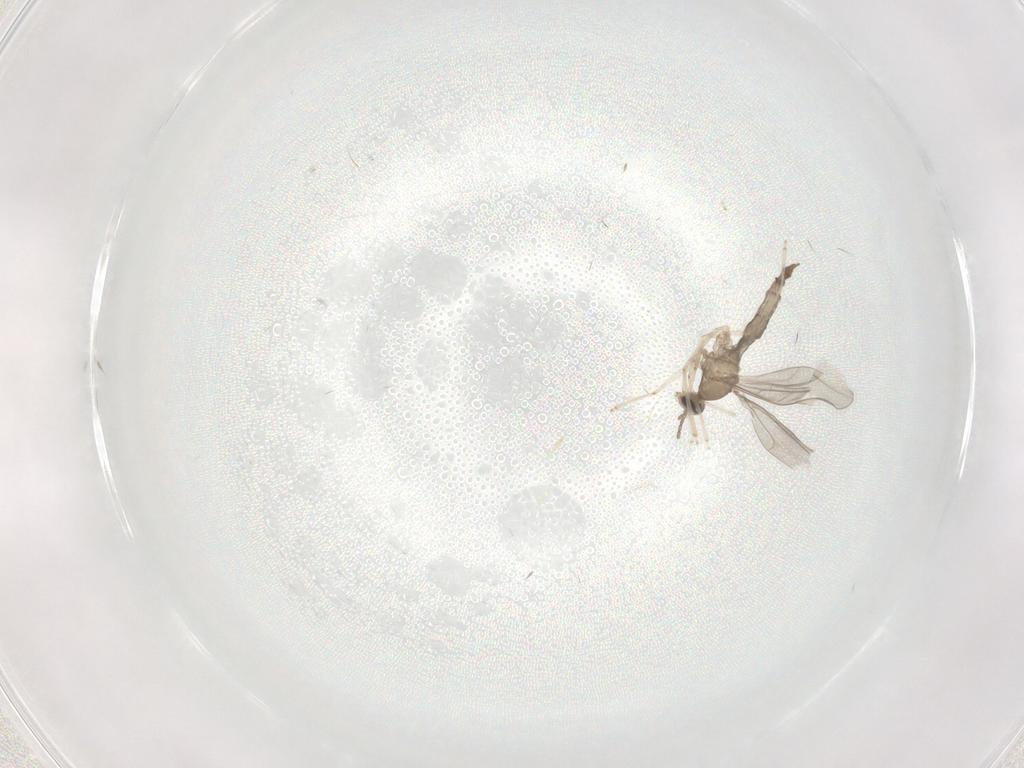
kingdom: Animalia
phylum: Arthropoda
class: Insecta
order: Diptera
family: Cecidomyiidae
